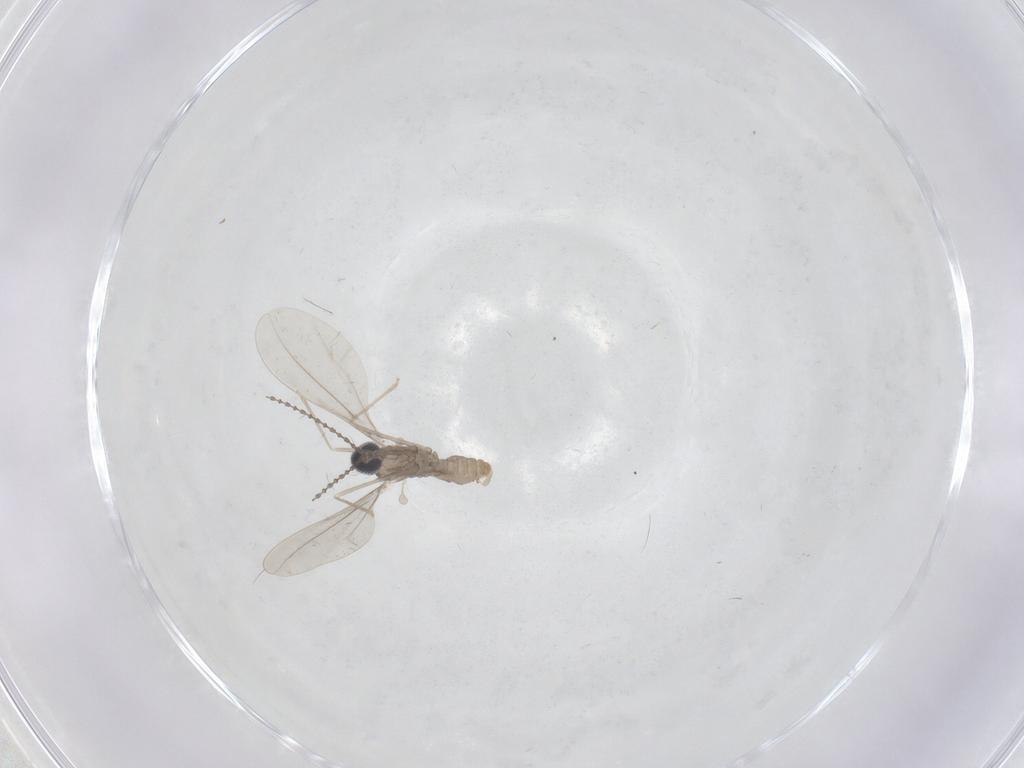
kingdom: Animalia
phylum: Arthropoda
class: Insecta
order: Diptera
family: Cecidomyiidae
